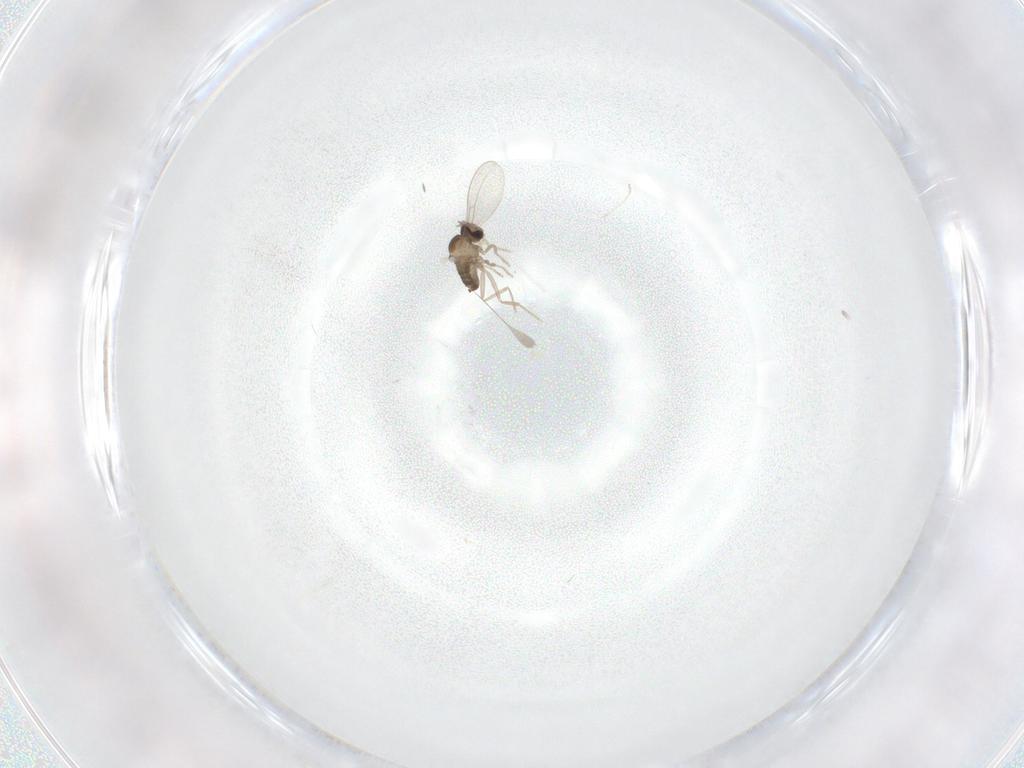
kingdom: Animalia
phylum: Arthropoda
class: Insecta
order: Diptera
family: Cecidomyiidae
